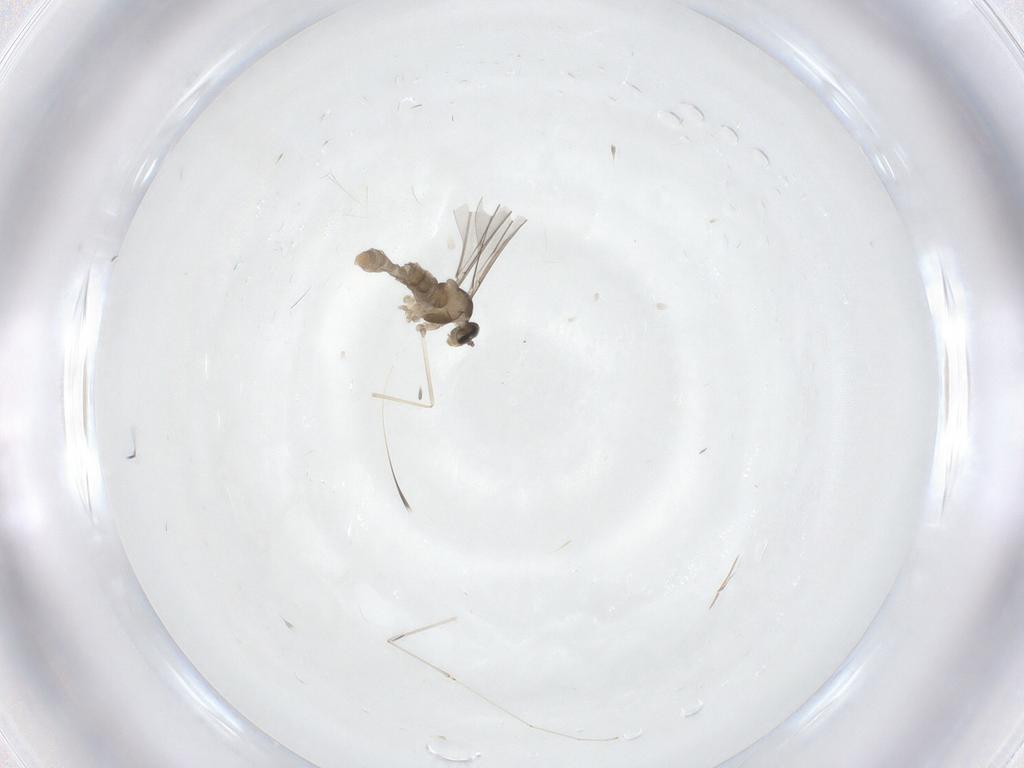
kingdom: Animalia
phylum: Arthropoda
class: Insecta
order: Diptera
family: Cecidomyiidae
